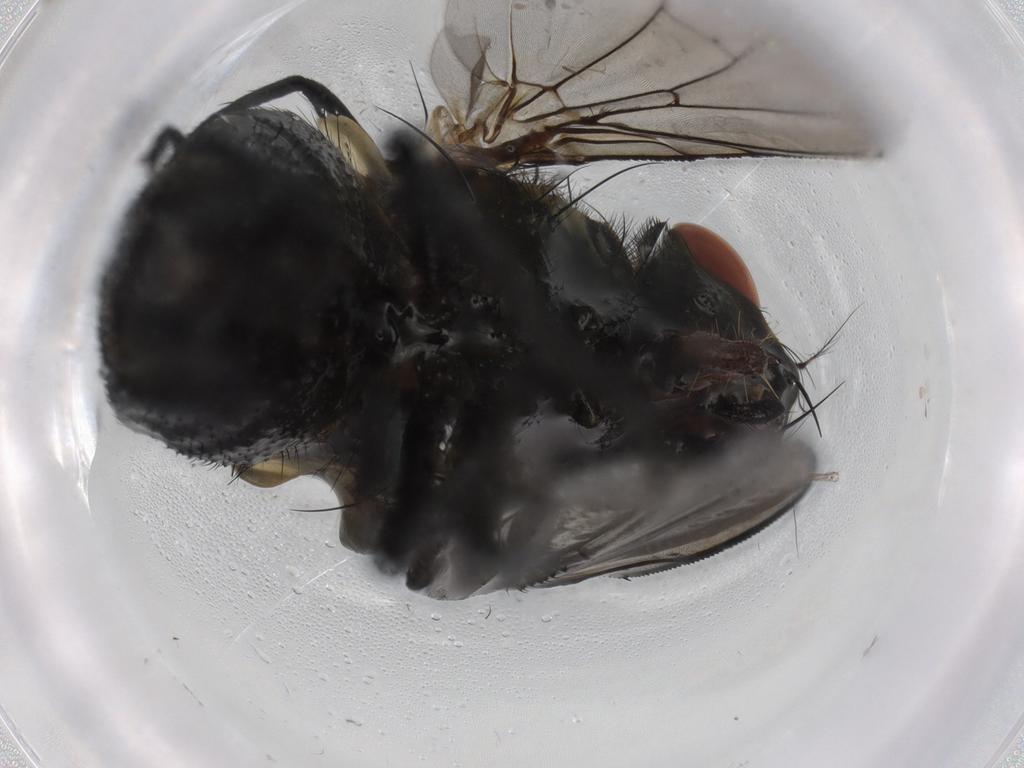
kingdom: Animalia
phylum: Arthropoda
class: Insecta
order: Diptera
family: Sarcophagidae
